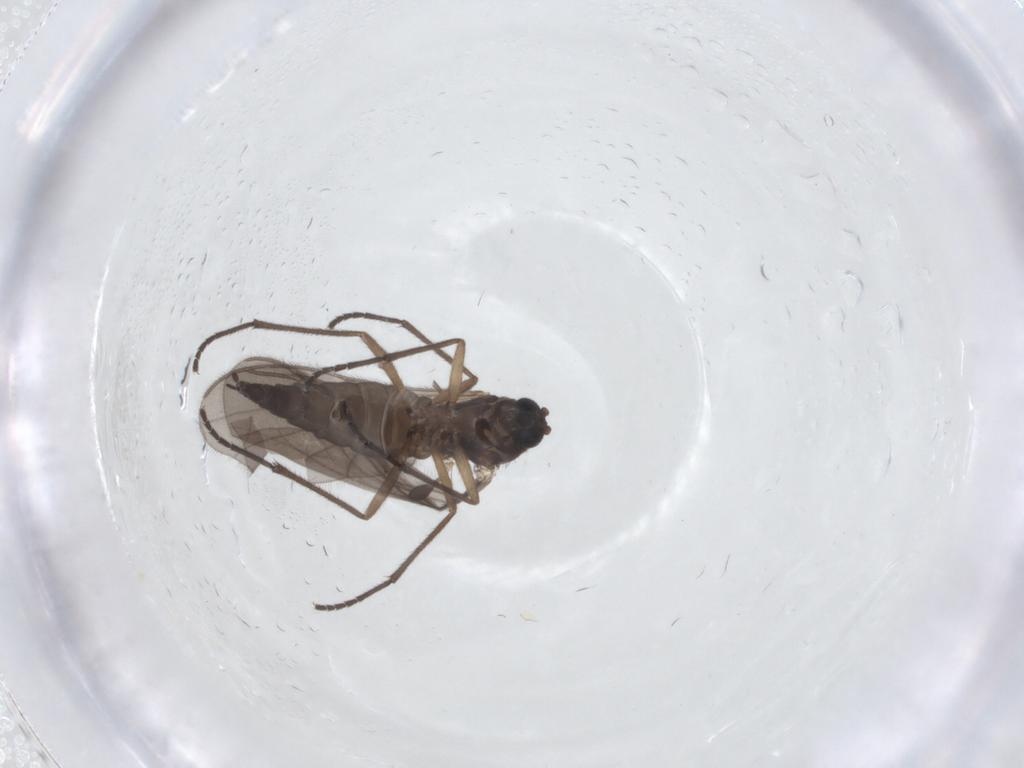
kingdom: Animalia
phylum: Arthropoda
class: Insecta
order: Diptera
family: Sciaridae
